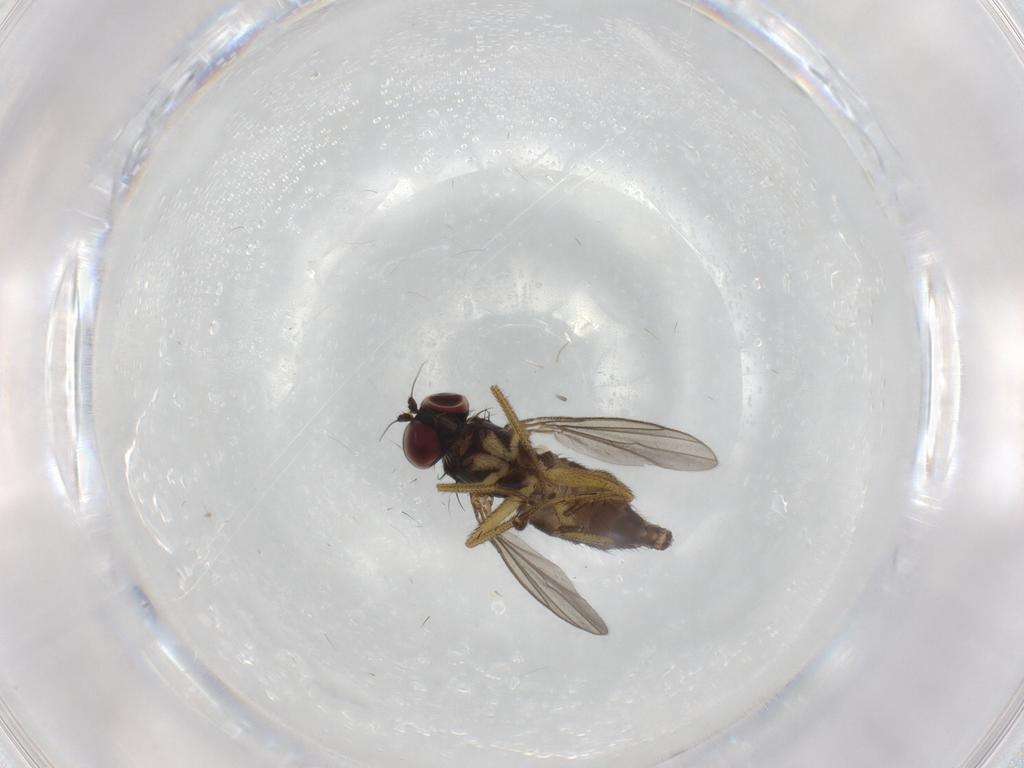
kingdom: Animalia
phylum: Arthropoda
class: Insecta
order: Diptera
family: Dolichopodidae
